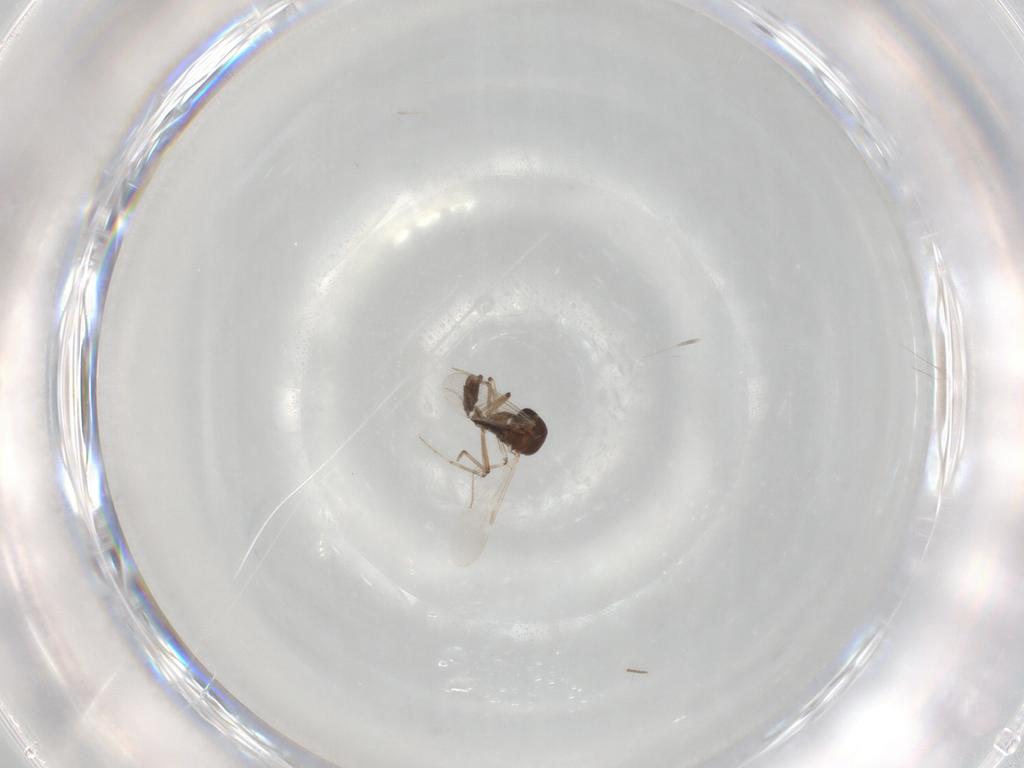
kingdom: Animalia
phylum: Arthropoda
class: Insecta
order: Diptera
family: Ceratopogonidae
